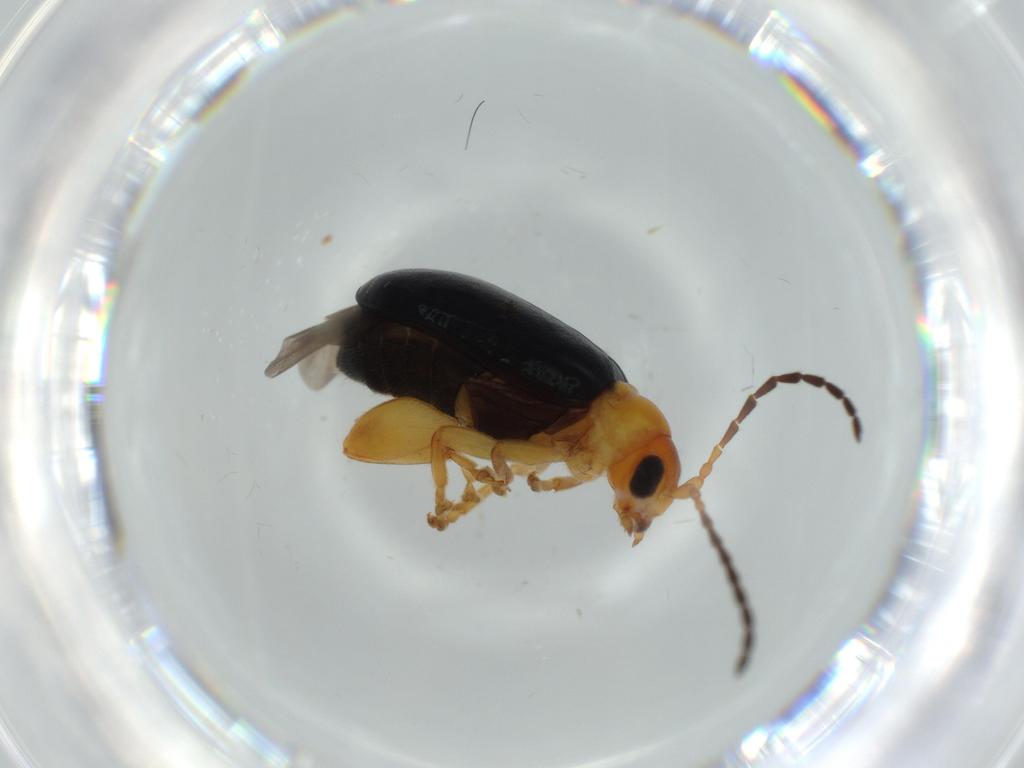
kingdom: Animalia
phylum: Arthropoda
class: Insecta
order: Coleoptera
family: Chrysomelidae
